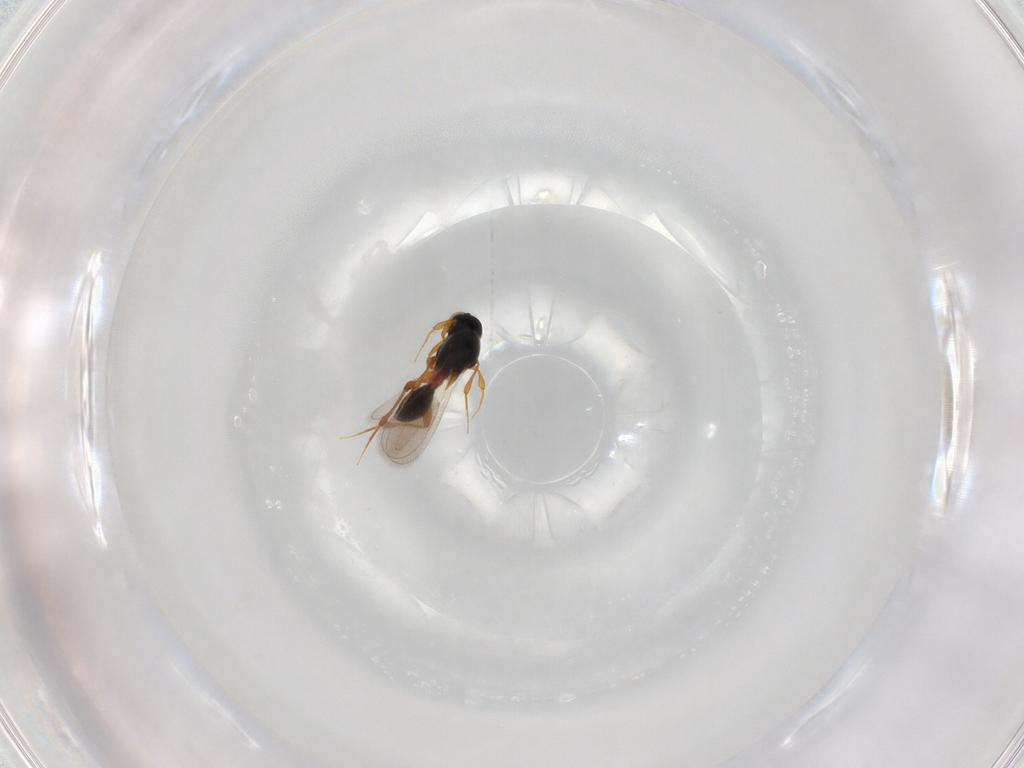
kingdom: Animalia
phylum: Arthropoda
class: Insecta
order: Hymenoptera
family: Platygastridae
